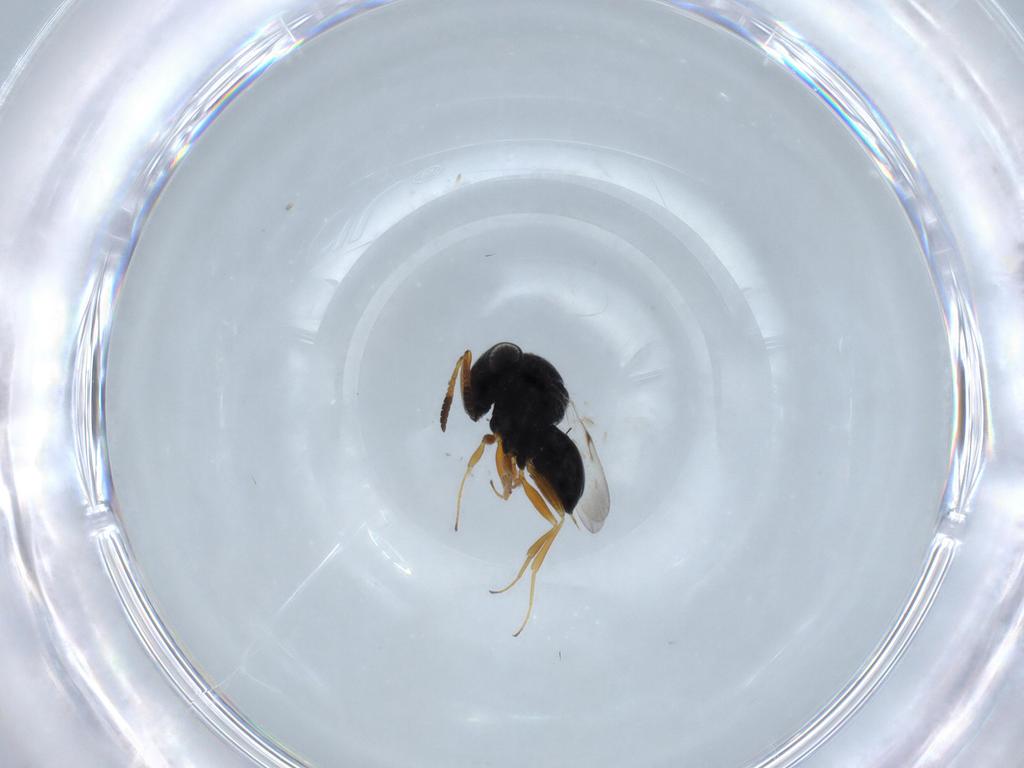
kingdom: Animalia
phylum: Arthropoda
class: Insecta
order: Hymenoptera
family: Scelionidae
